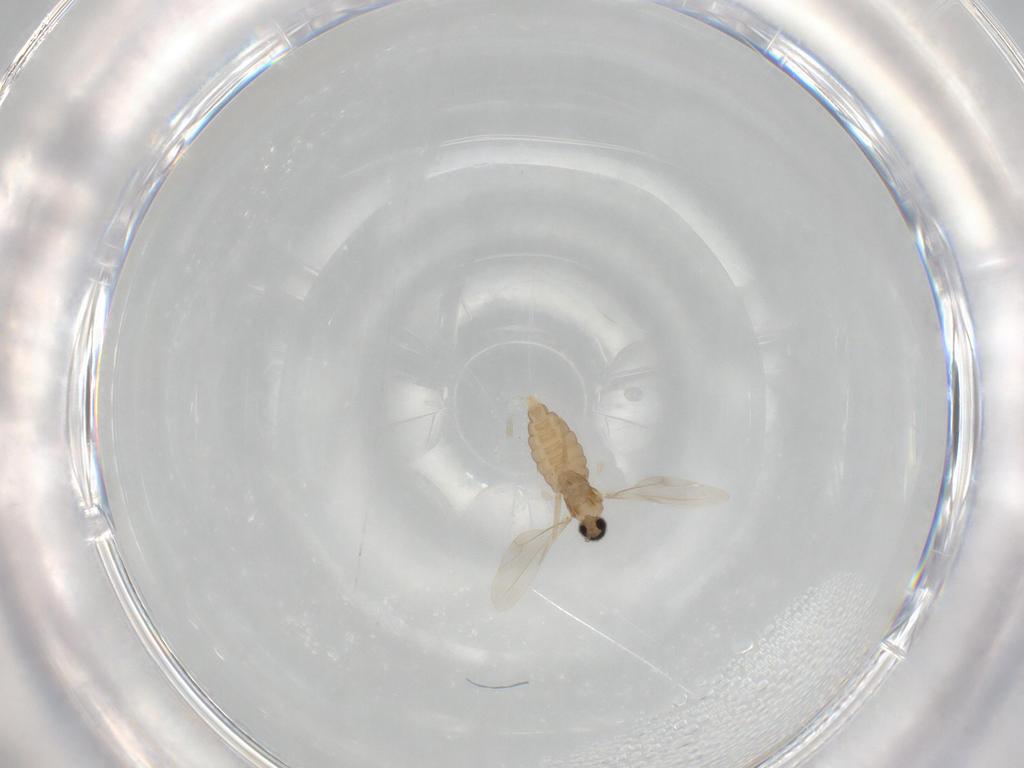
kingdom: Animalia
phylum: Arthropoda
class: Insecta
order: Diptera
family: Cecidomyiidae
